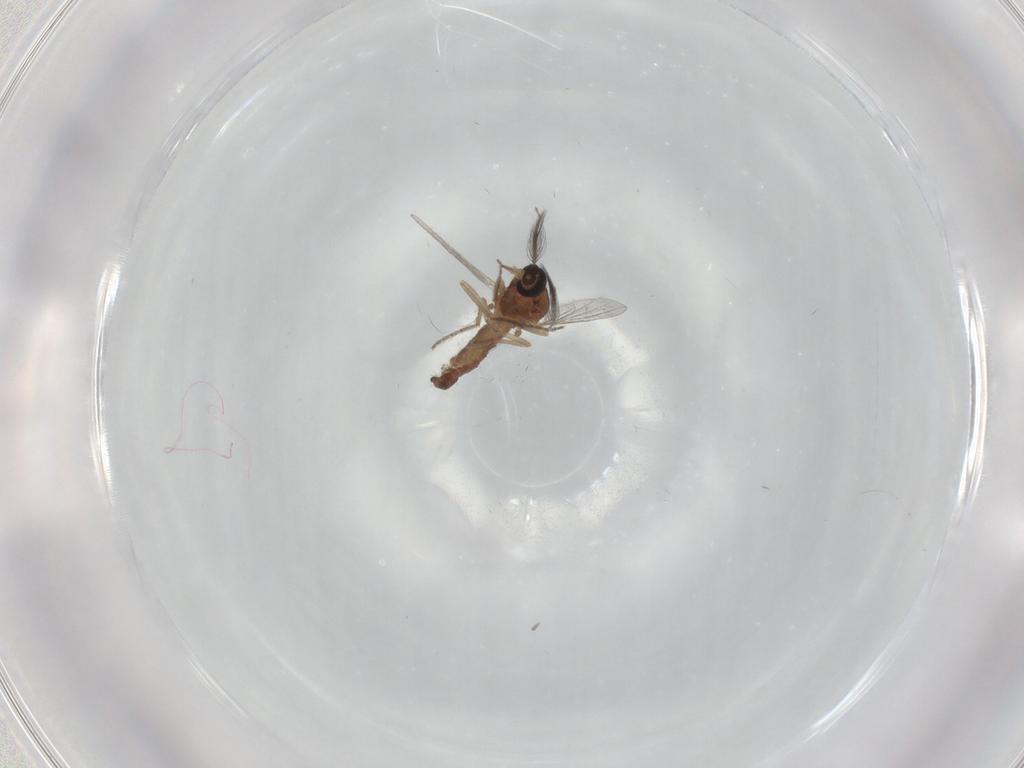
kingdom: Animalia
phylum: Arthropoda
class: Insecta
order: Diptera
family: Ceratopogonidae
